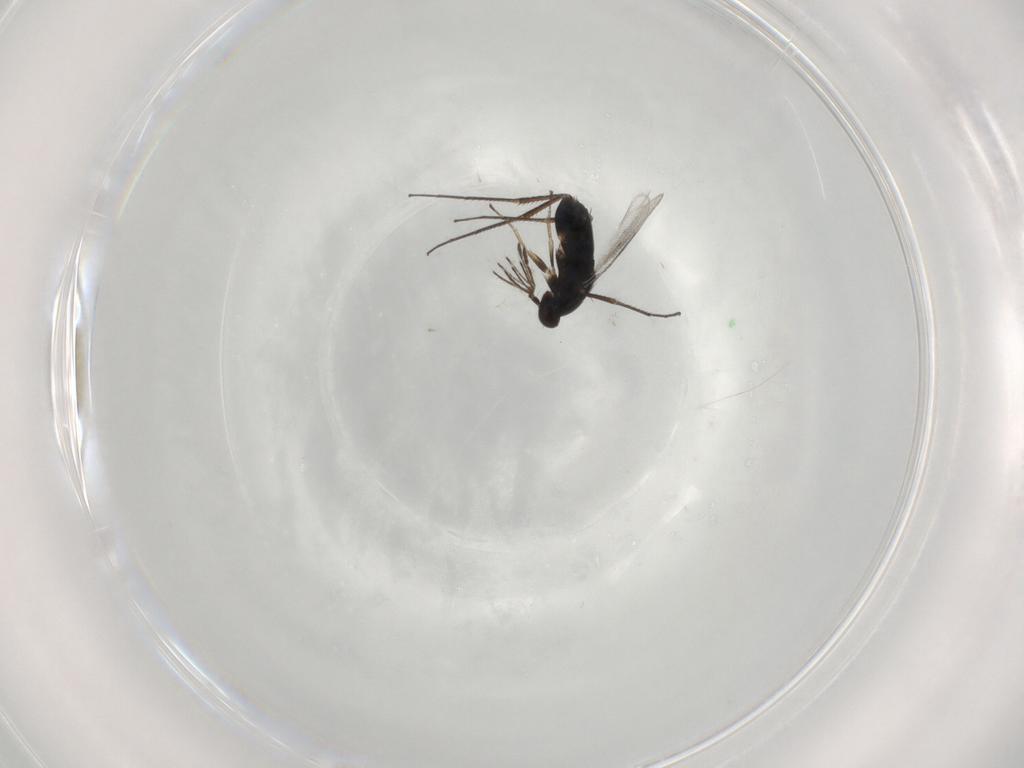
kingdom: Animalia
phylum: Arthropoda
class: Insecta
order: Hymenoptera
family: Eulophidae
